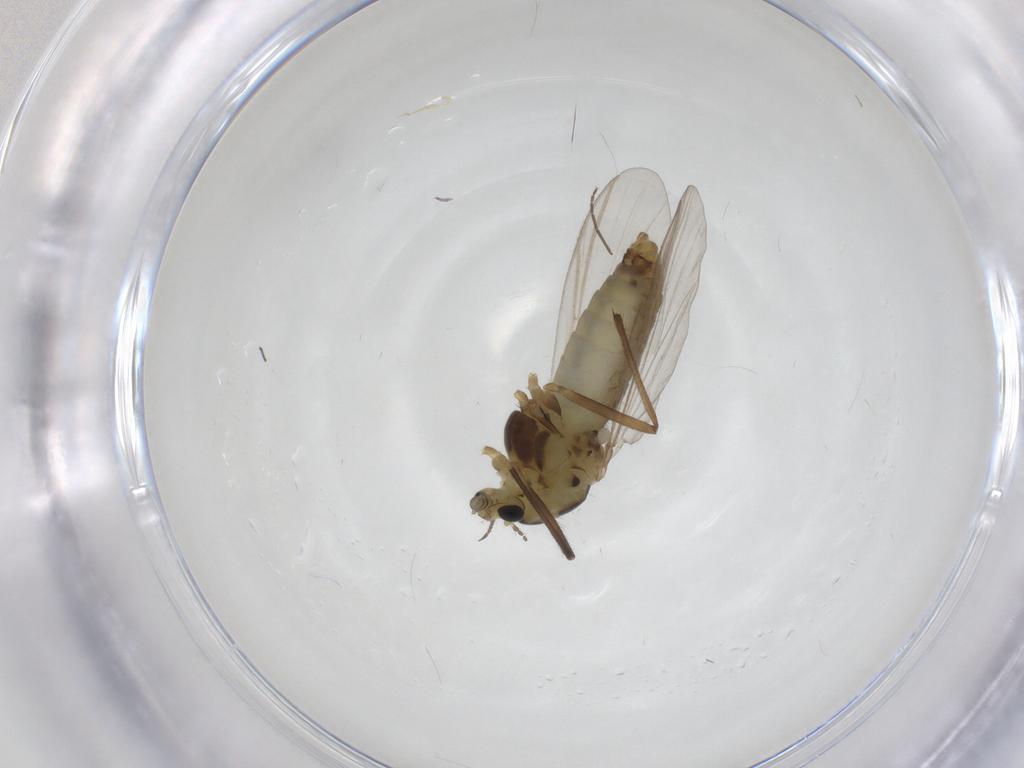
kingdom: Animalia
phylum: Arthropoda
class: Insecta
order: Diptera
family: Chironomidae
